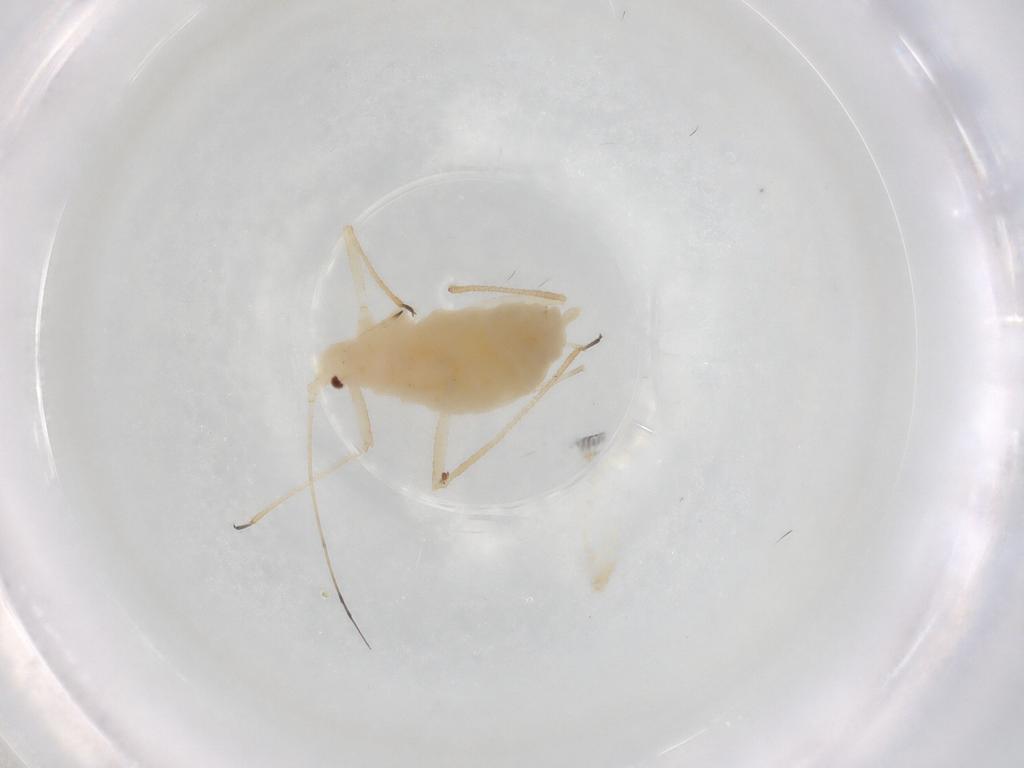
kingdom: Animalia
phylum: Arthropoda
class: Insecta
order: Hemiptera
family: Aphididae
